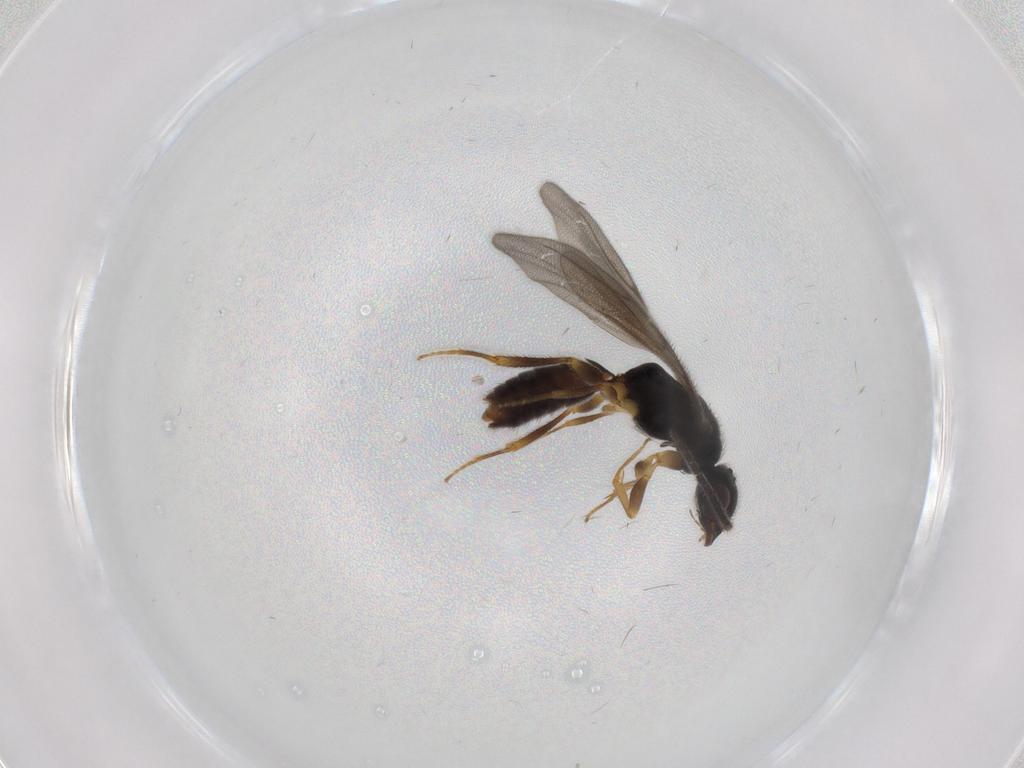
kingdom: Animalia
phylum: Arthropoda
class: Insecta
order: Hymenoptera
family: Bethylidae
